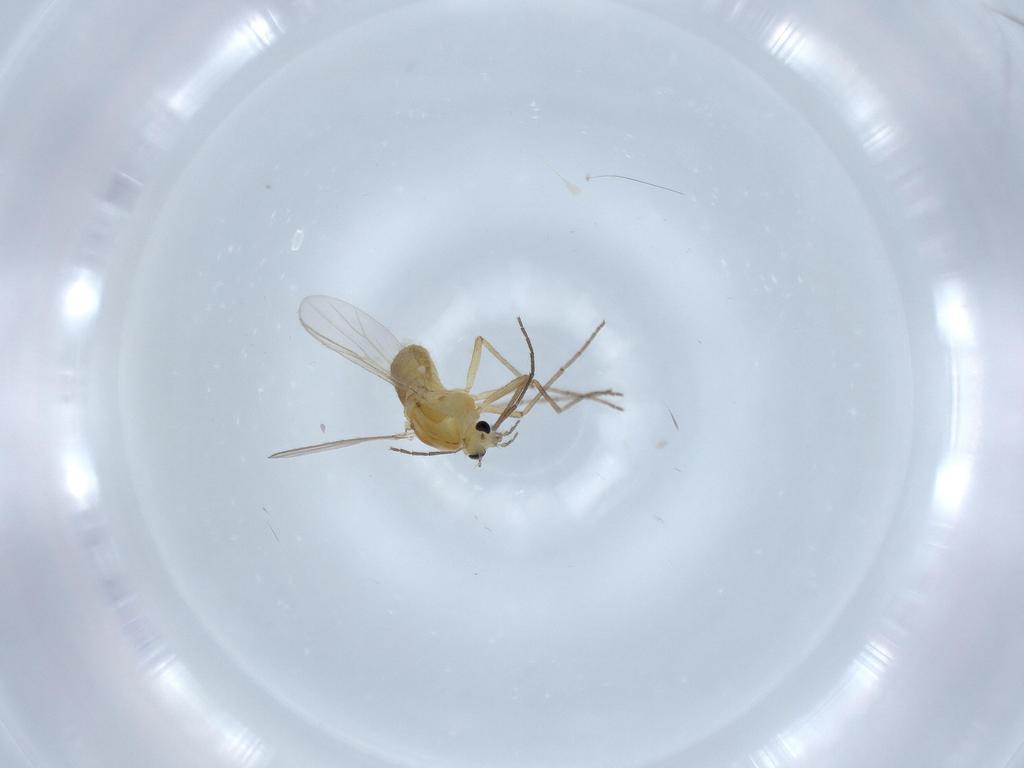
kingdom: Animalia
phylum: Arthropoda
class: Insecta
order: Diptera
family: Chironomidae
